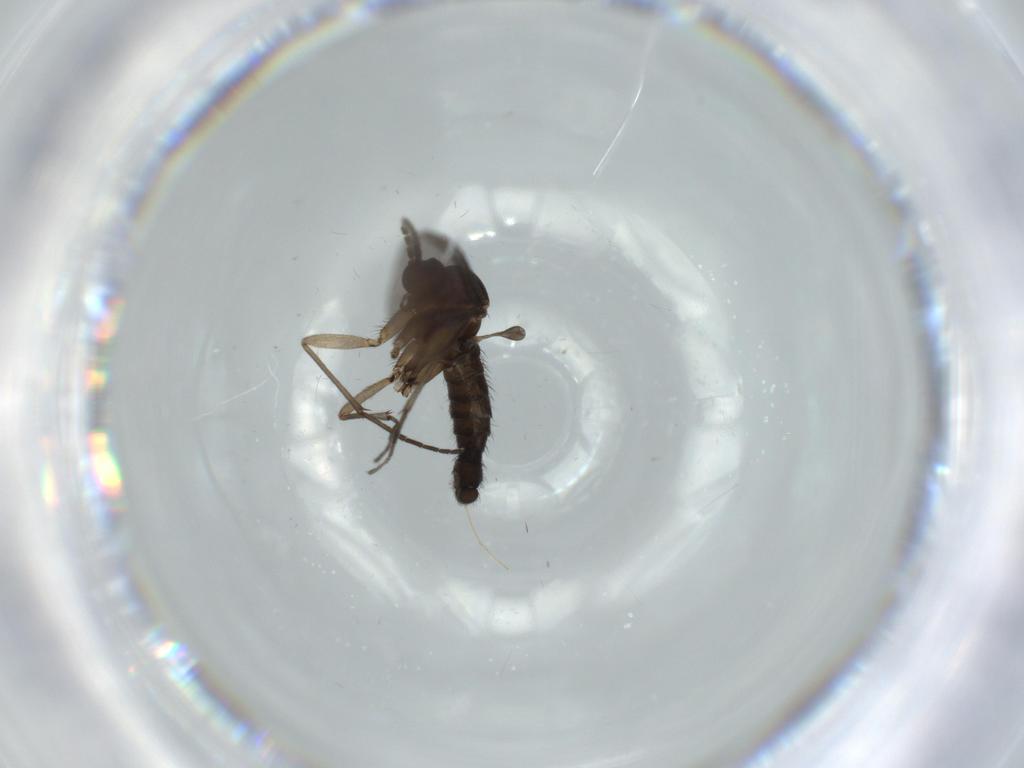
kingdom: Animalia
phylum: Arthropoda
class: Insecta
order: Diptera
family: Sciaridae
